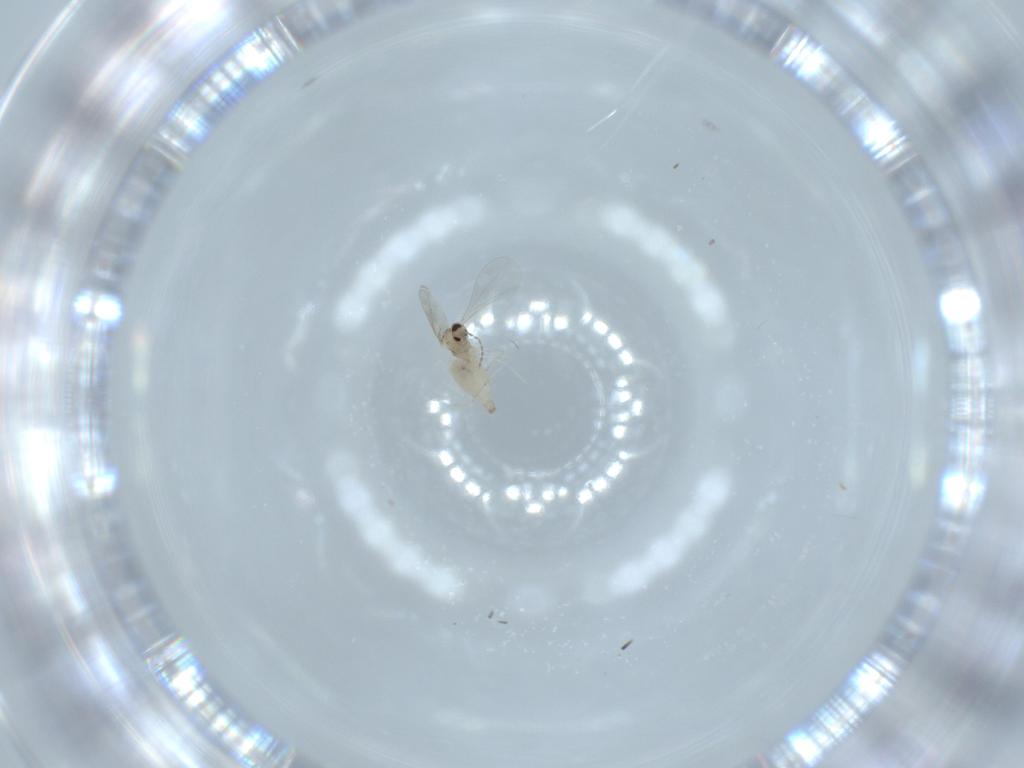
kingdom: Animalia
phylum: Arthropoda
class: Insecta
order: Diptera
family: Cecidomyiidae
